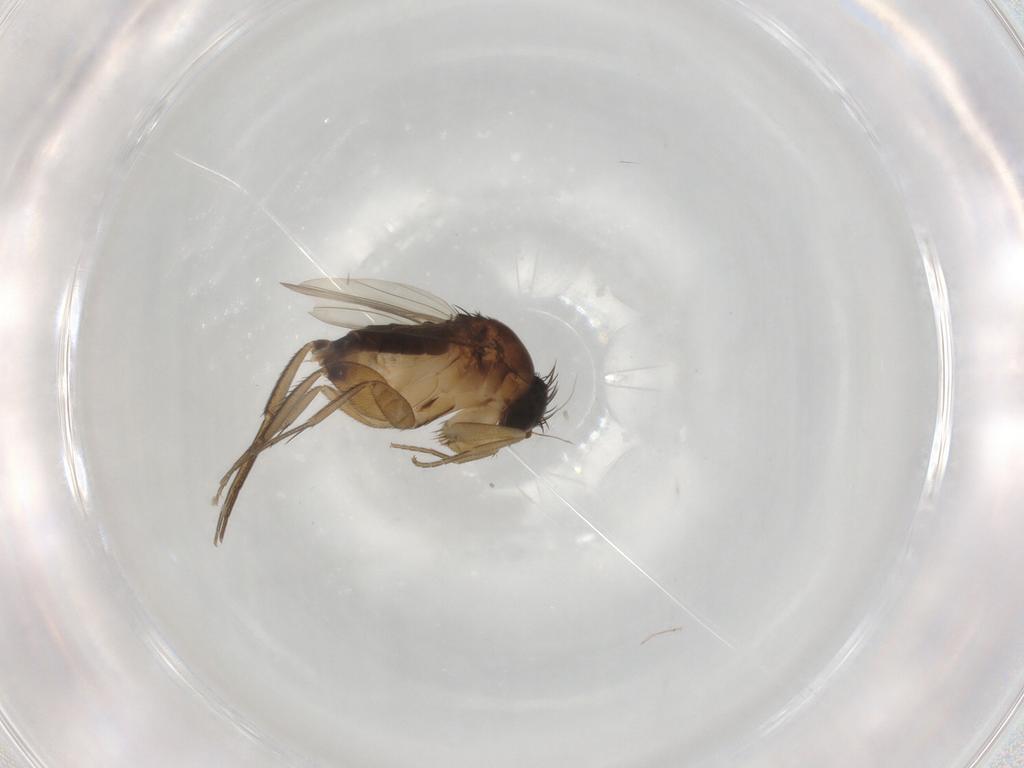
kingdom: Animalia
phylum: Arthropoda
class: Insecta
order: Diptera
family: Phoridae
